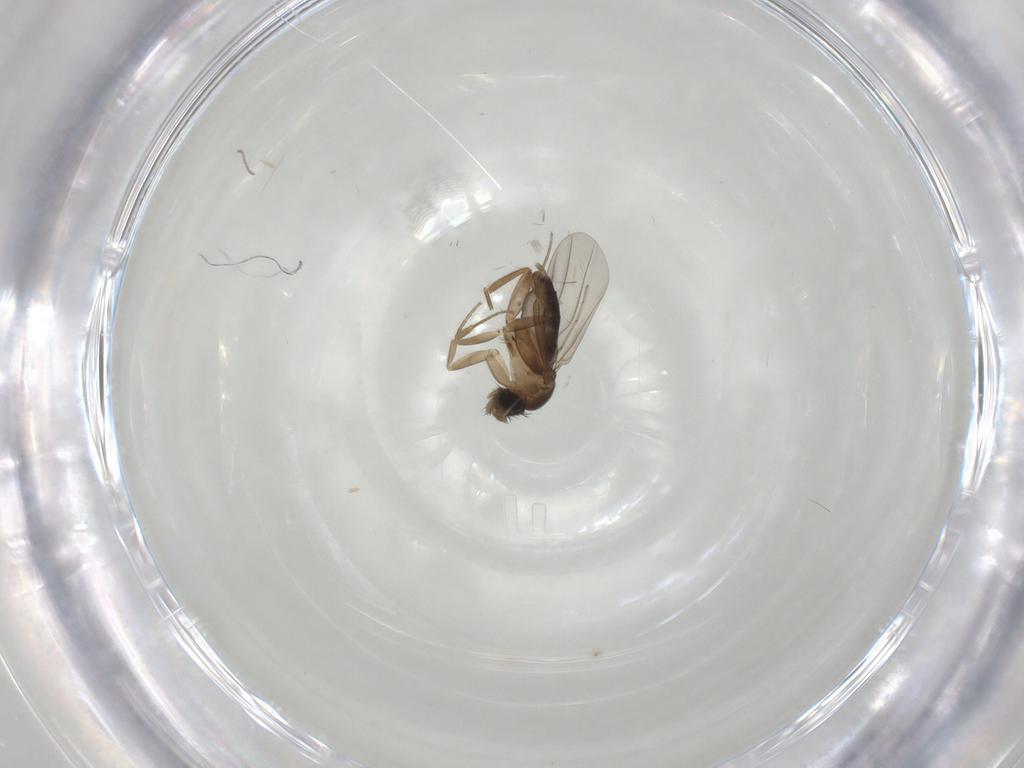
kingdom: Animalia
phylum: Arthropoda
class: Insecta
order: Diptera
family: Cecidomyiidae
